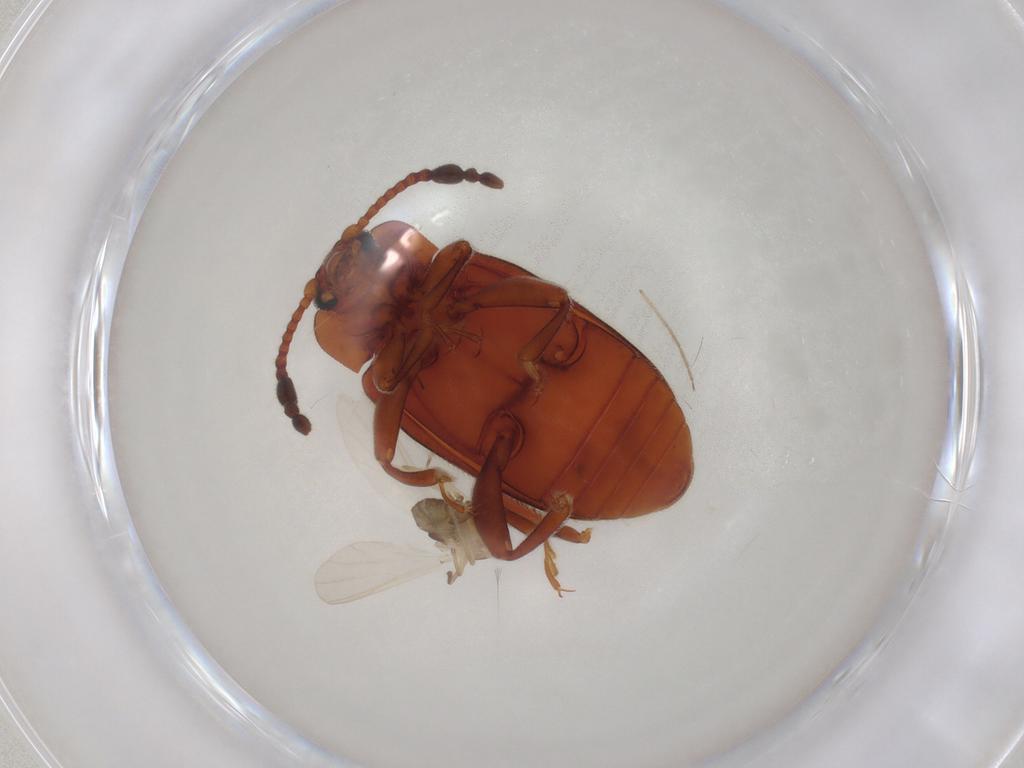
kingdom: Animalia
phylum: Arthropoda
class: Insecta
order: Coleoptera
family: Endomychidae
